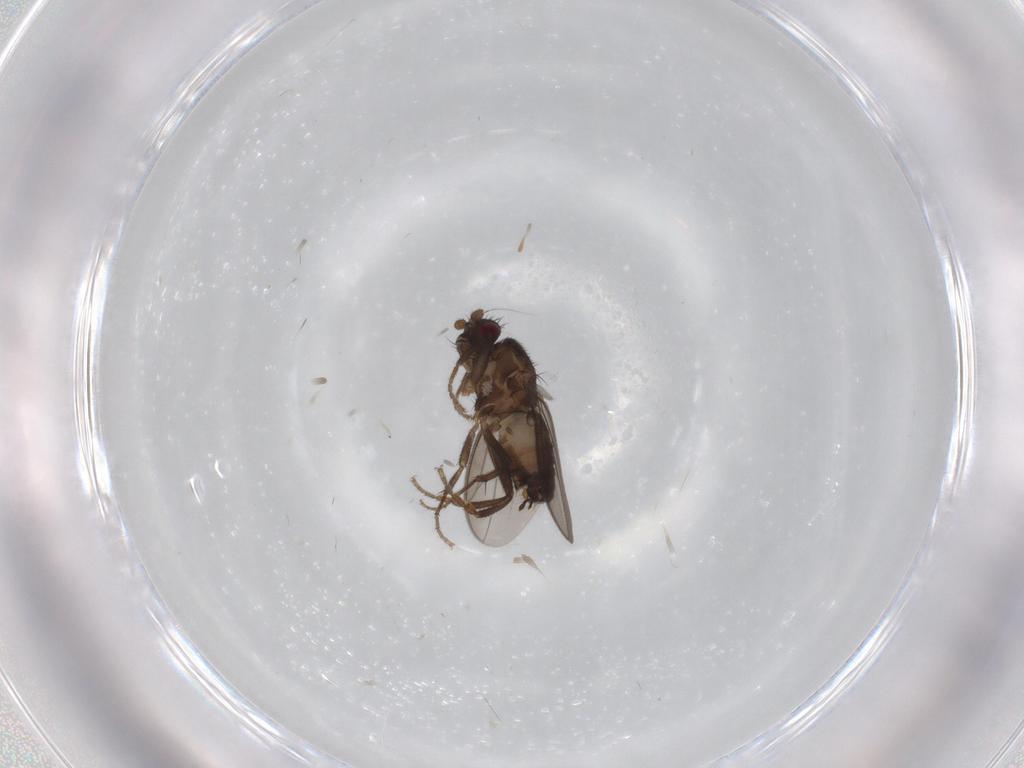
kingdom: Animalia
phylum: Arthropoda
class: Insecta
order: Diptera
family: Sphaeroceridae
